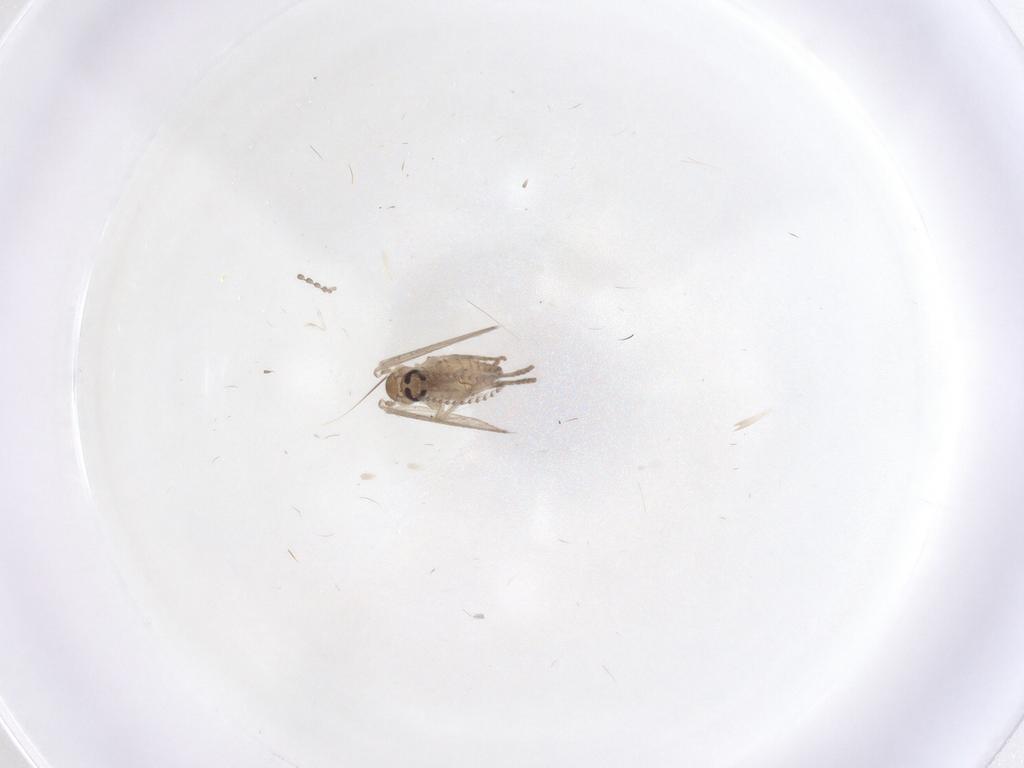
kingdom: Animalia
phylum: Arthropoda
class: Insecta
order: Diptera
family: Psychodidae
